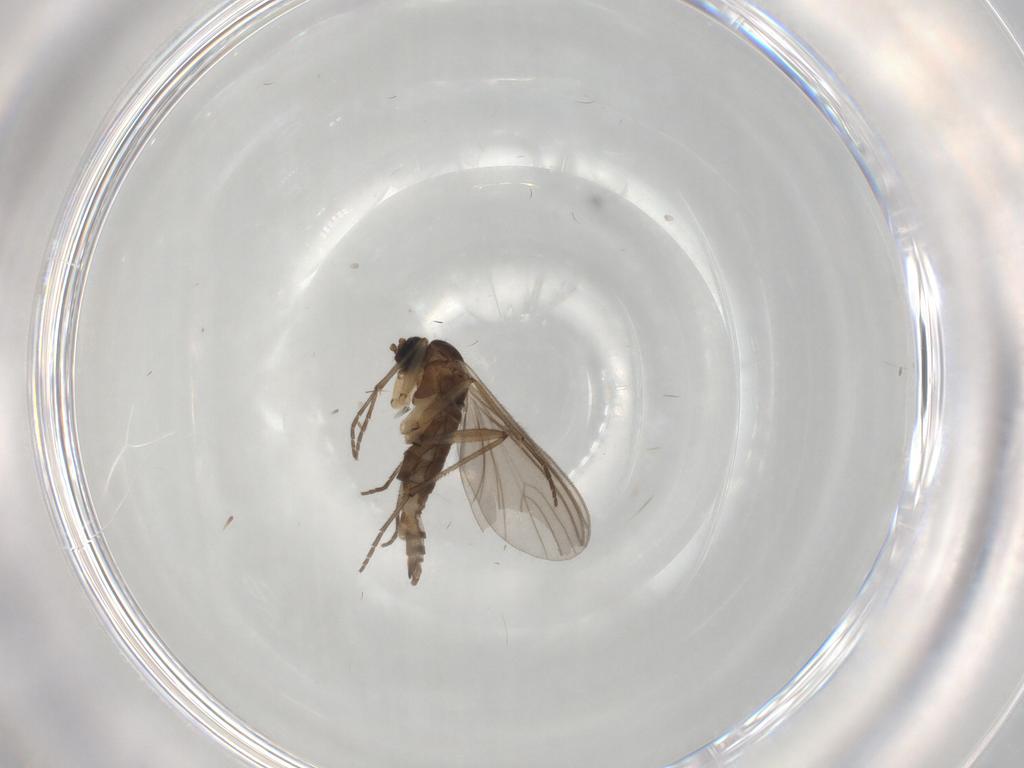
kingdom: Animalia
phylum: Arthropoda
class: Insecta
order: Diptera
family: Sciaridae
